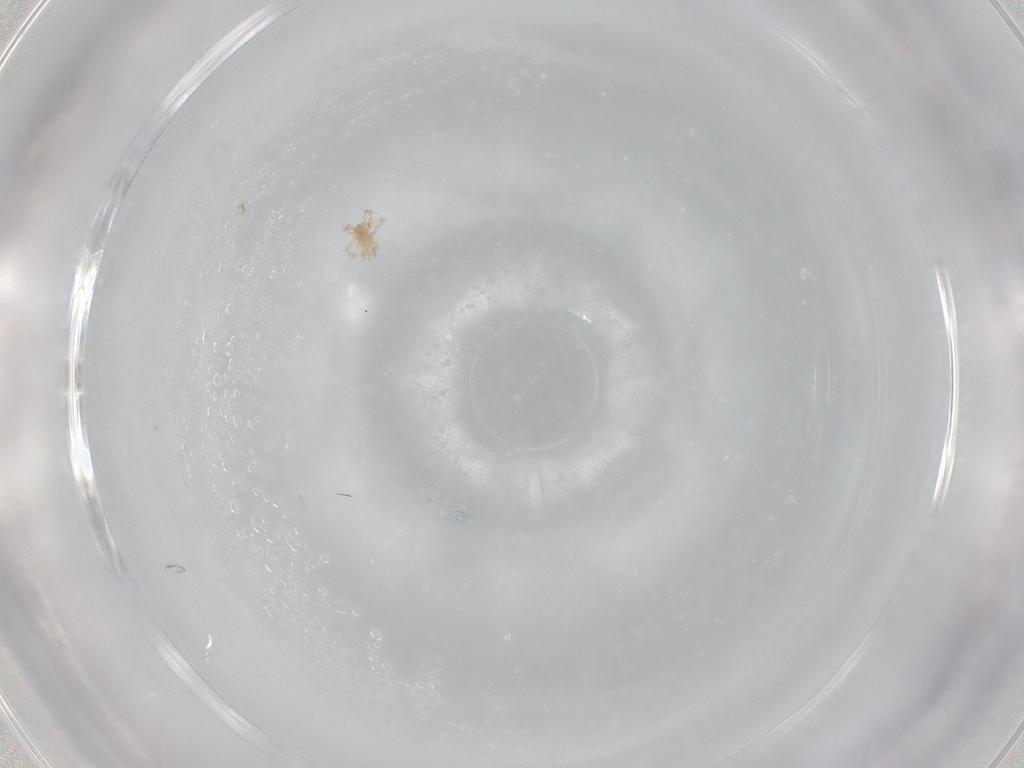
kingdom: Animalia
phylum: Arthropoda
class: Arachnida
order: Trombidiformes
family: Erythraeidae
